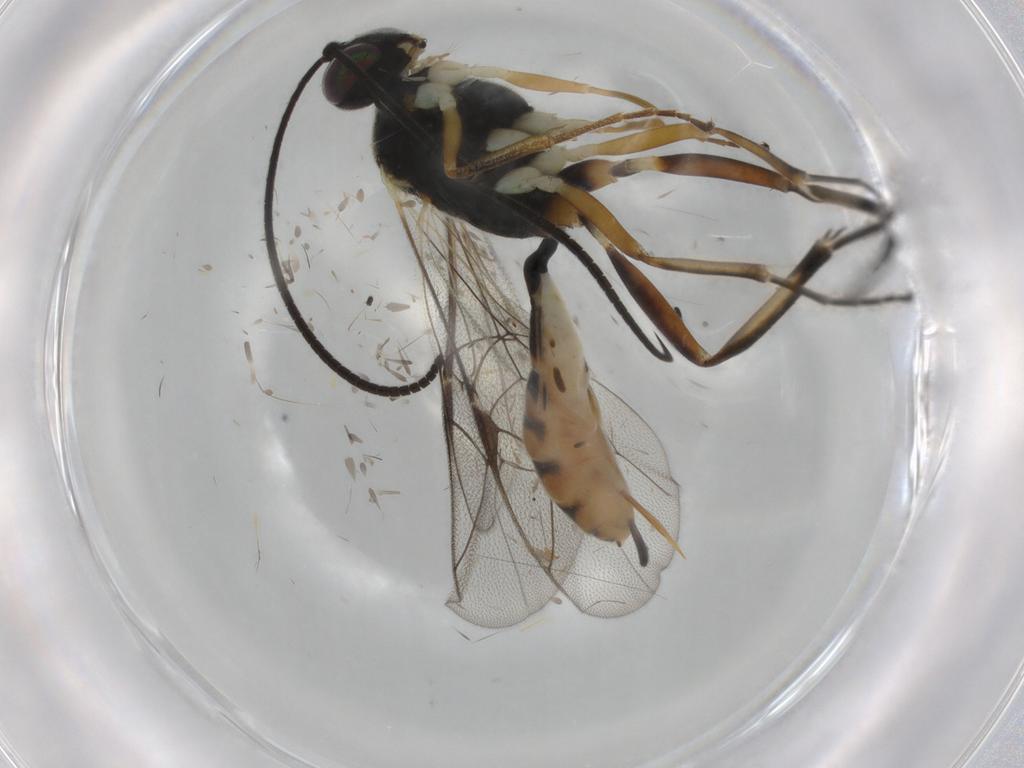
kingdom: Animalia
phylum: Arthropoda
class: Insecta
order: Hymenoptera
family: Ichneumonidae
